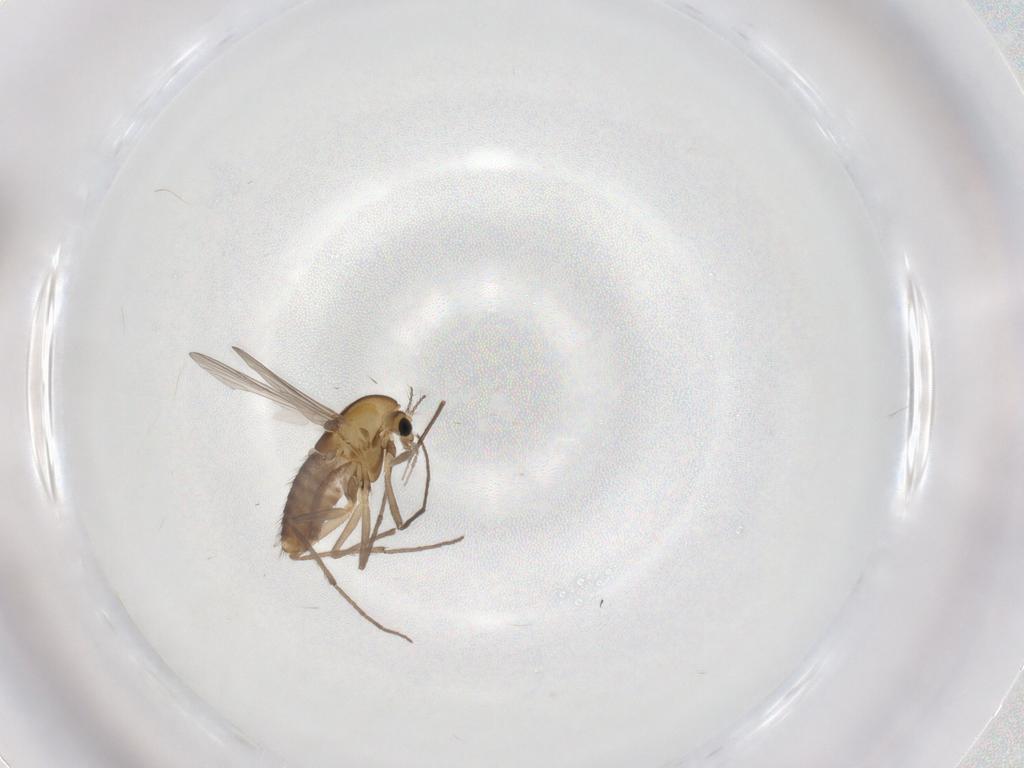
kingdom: Animalia
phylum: Arthropoda
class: Insecta
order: Diptera
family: Chironomidae
